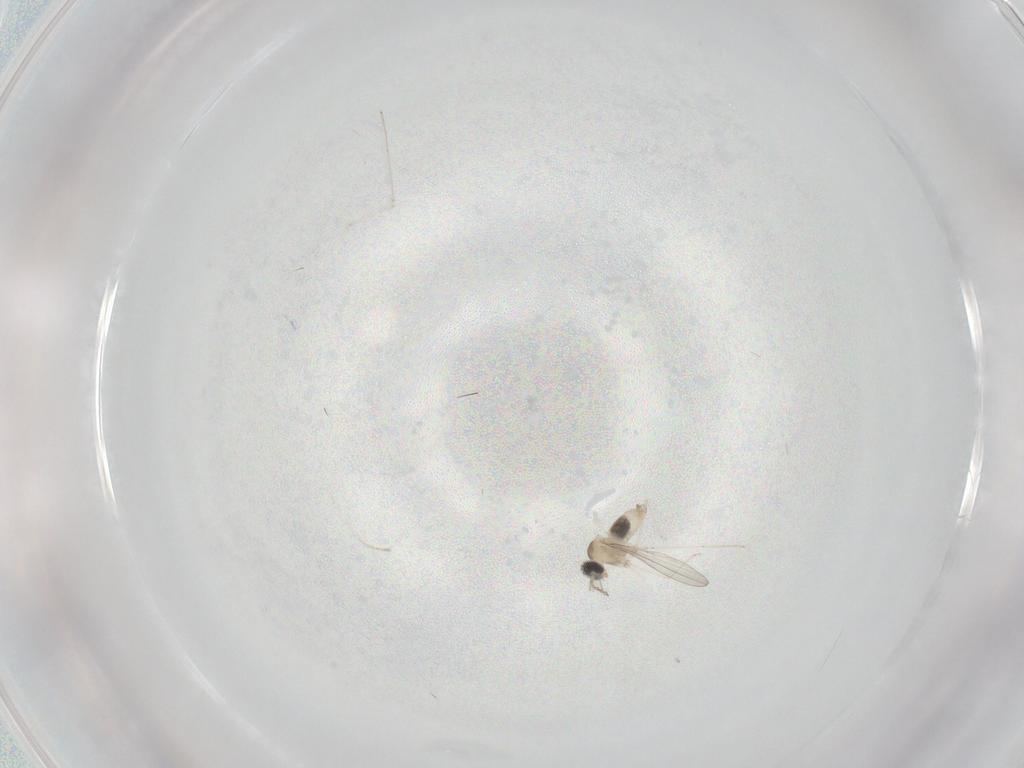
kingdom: Animalia
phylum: Arthropoda
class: Insecta
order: Diptera
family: Cecidomyiidae
